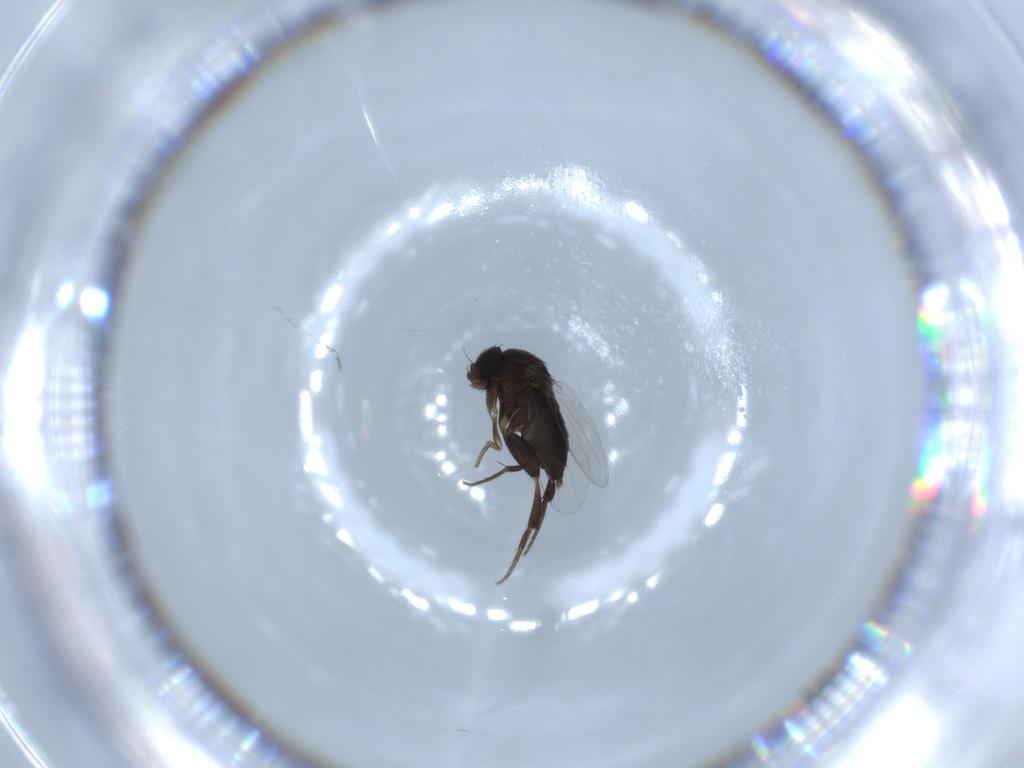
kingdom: Animalia
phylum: Arthropoda
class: Insecta
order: Diptera
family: Phoridae
